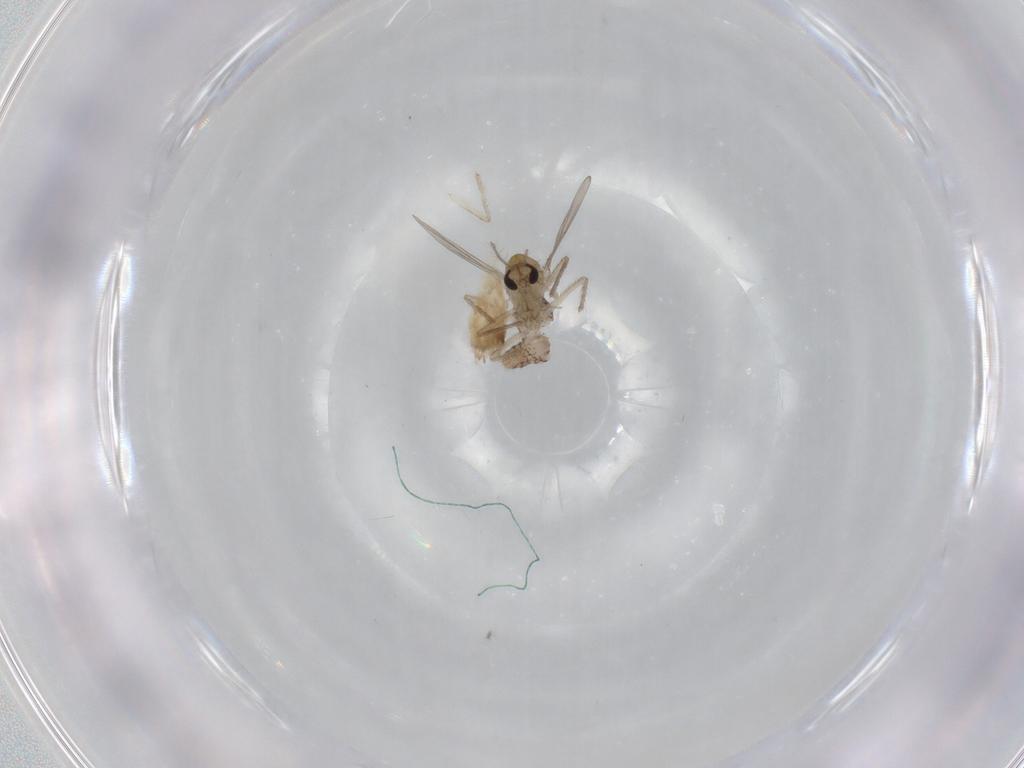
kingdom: Animalia
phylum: Arthropoda
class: Insecta
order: Diptera
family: Chironomidae
